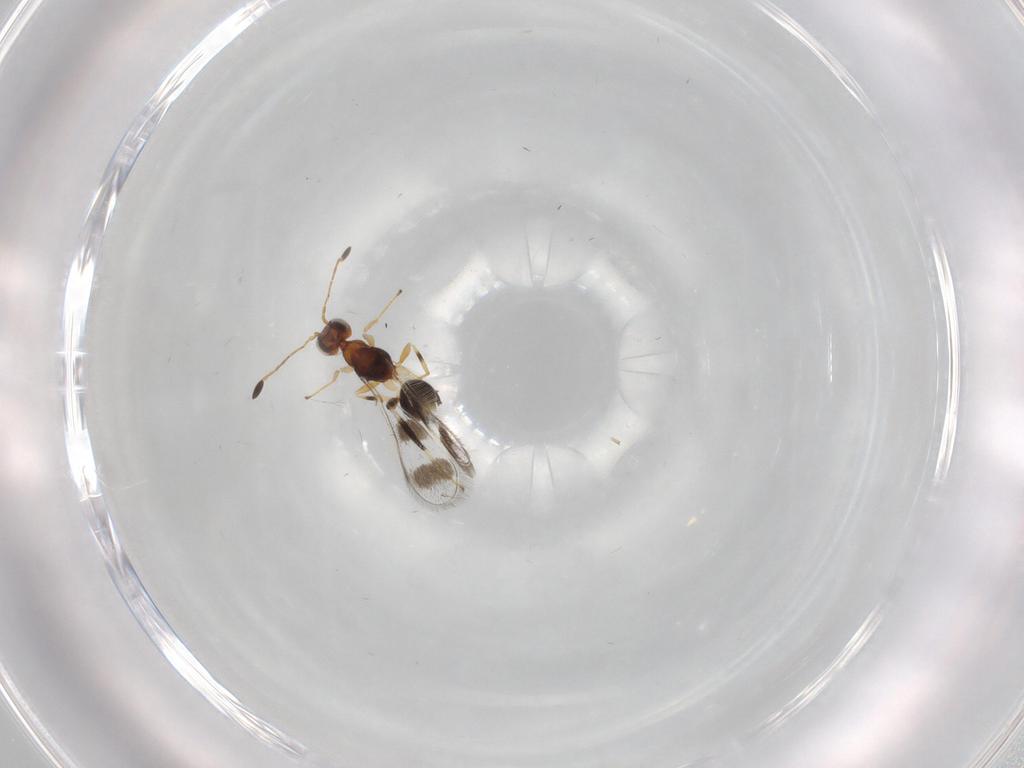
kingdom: Animalia
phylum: Arthropoda
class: Insecta
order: Hymenoptera
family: Mymaridae
